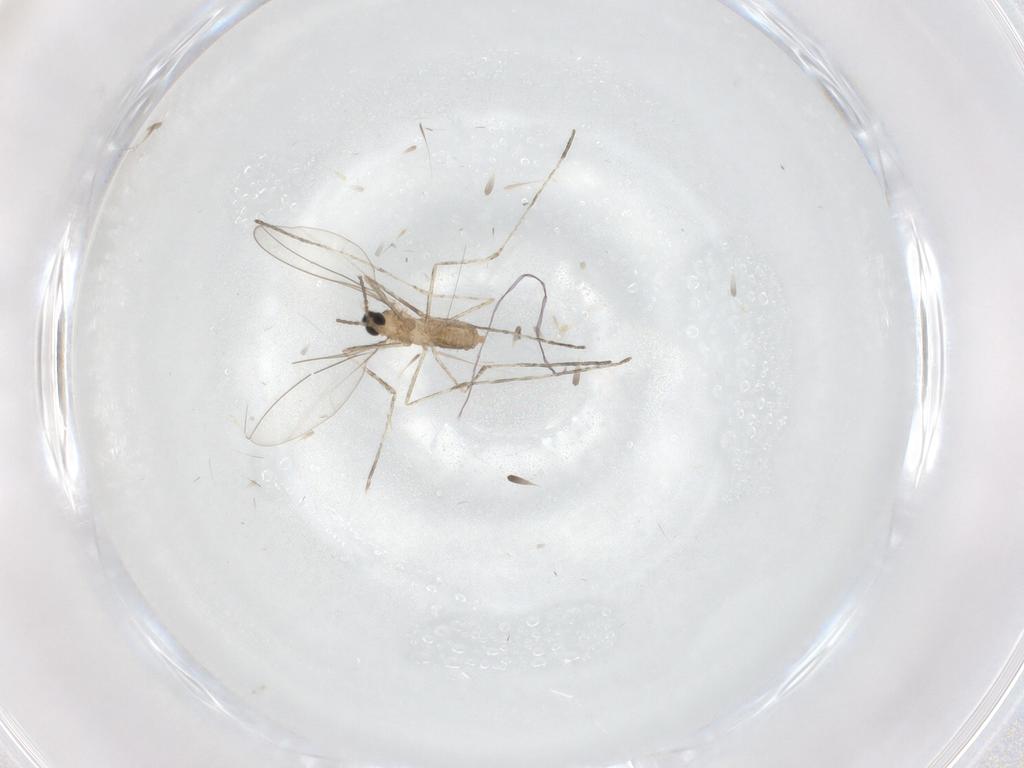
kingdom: Animalia
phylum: Arthropoda
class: Insecta
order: Diptera
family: Cecidomyiidae
